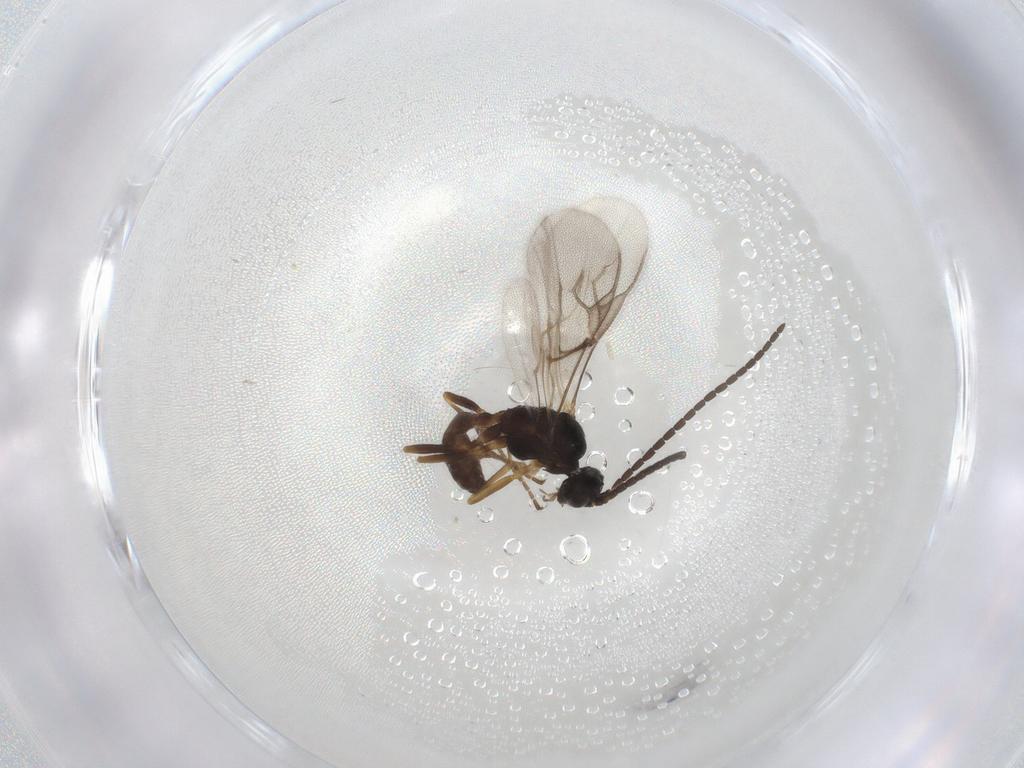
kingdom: Animalia
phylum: Arthropoda
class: Insecta
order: Hymenoptera
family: Braconidae
